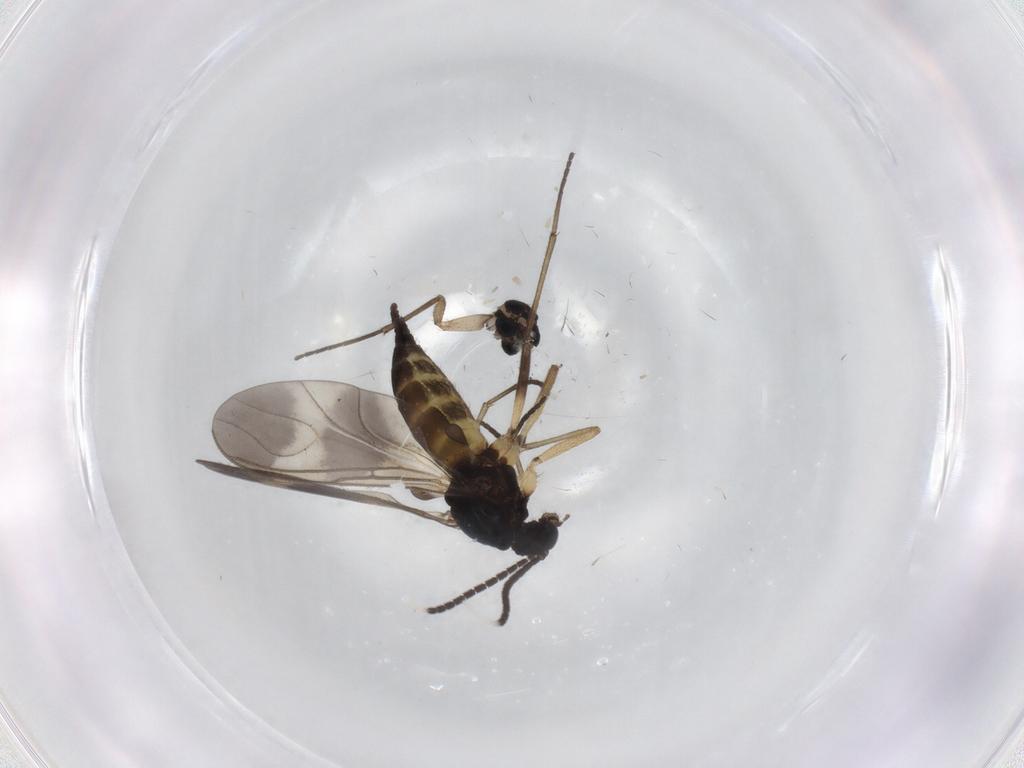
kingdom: Animalia
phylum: Arthropoda
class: Insecta
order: Diptera
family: Sciaridae
